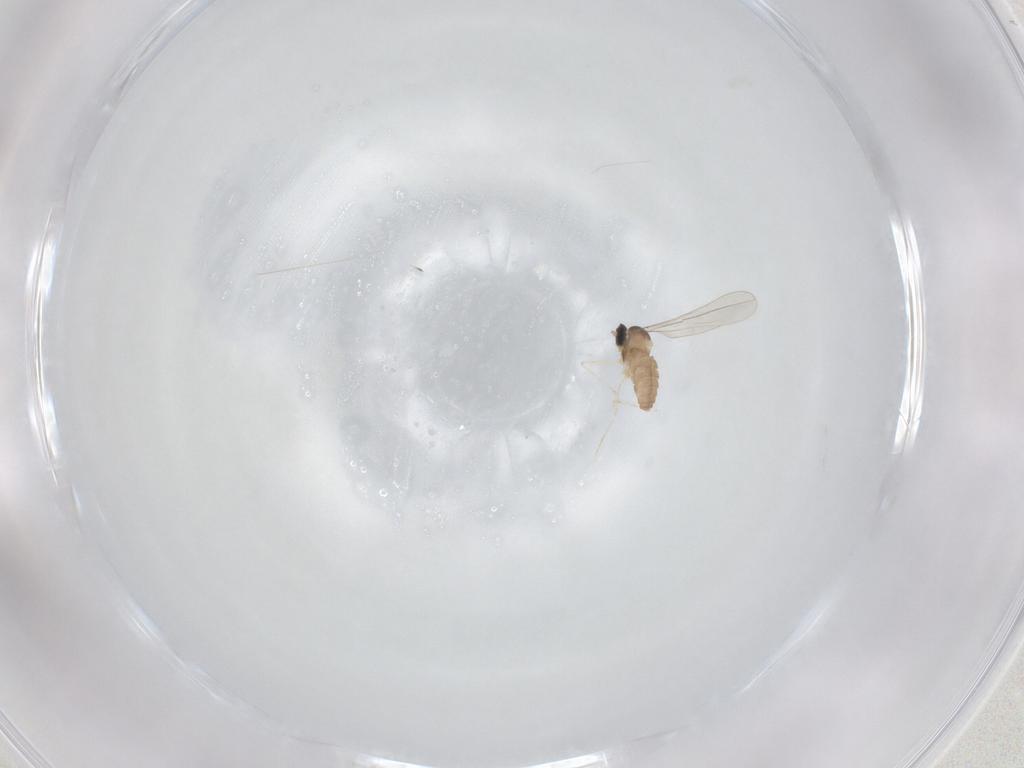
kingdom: Animalia
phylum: Arthropoda
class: Insecta
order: Diptera
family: Cecidomyiidae
